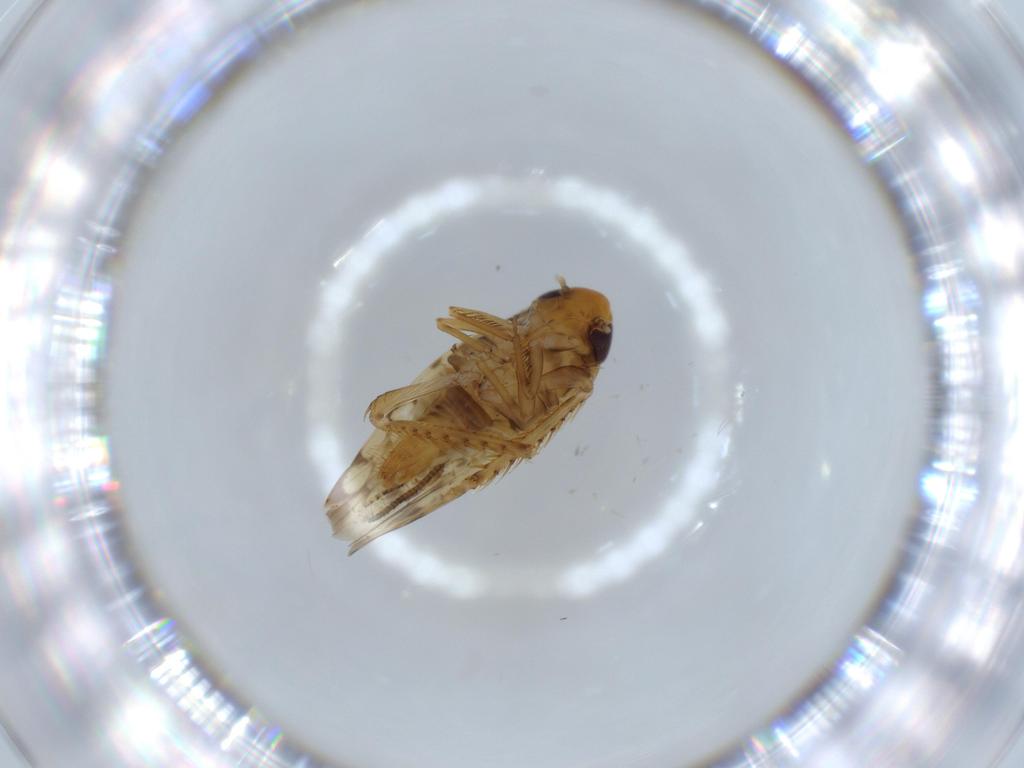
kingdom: Animalia
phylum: Arthropoda
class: Insecta
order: Hemiptera
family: Cicadellidae
